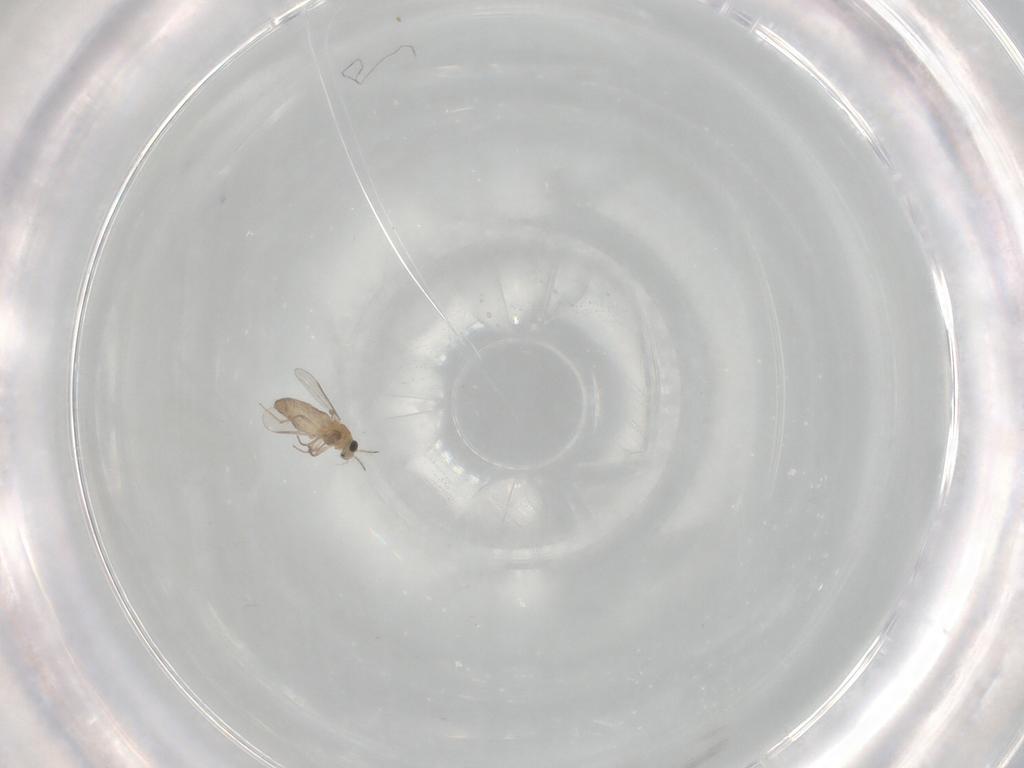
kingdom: Animalia
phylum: Arthropoda
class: Insecta
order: Diptera
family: Chironomidae
